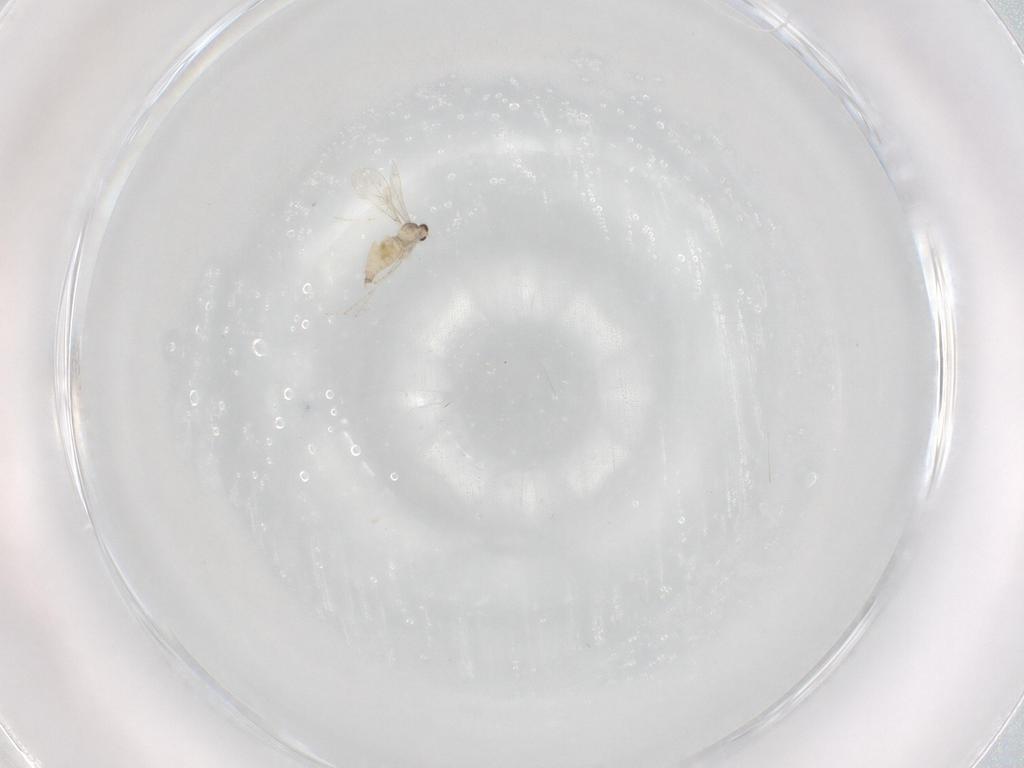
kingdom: Animalia
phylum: Arthropoda
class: Insecta
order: Diptera
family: Cecidomyiidae
